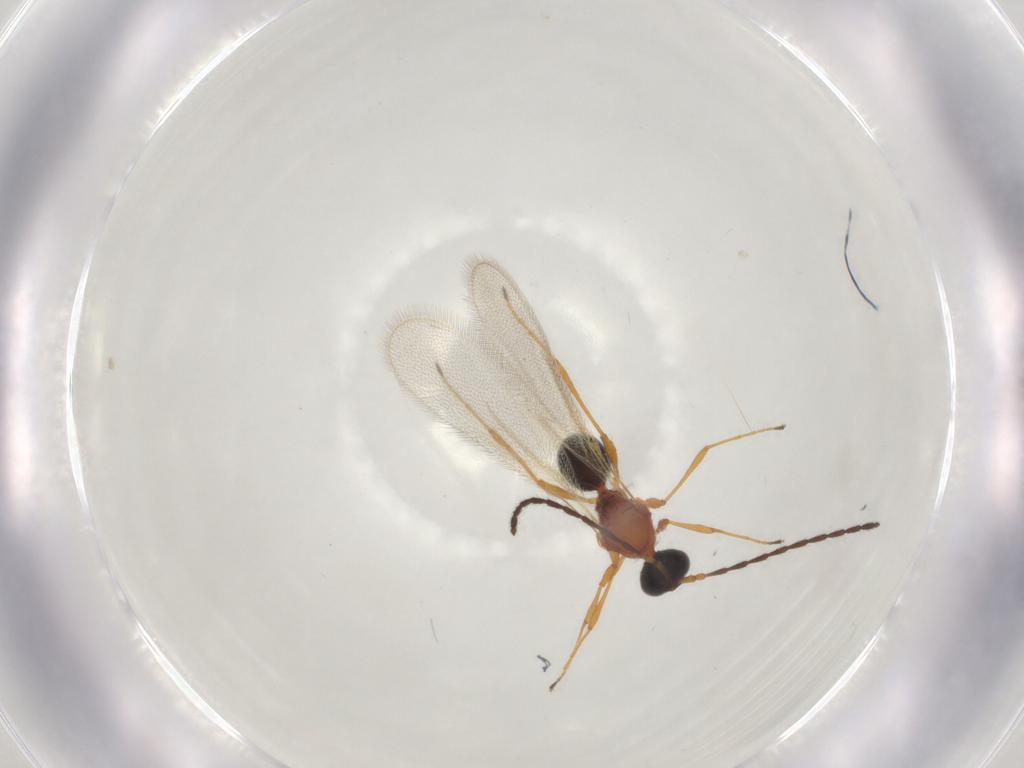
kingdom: Animalia
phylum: Arthropoda
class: Insecta
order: Hymenoptera
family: Diapriidae
